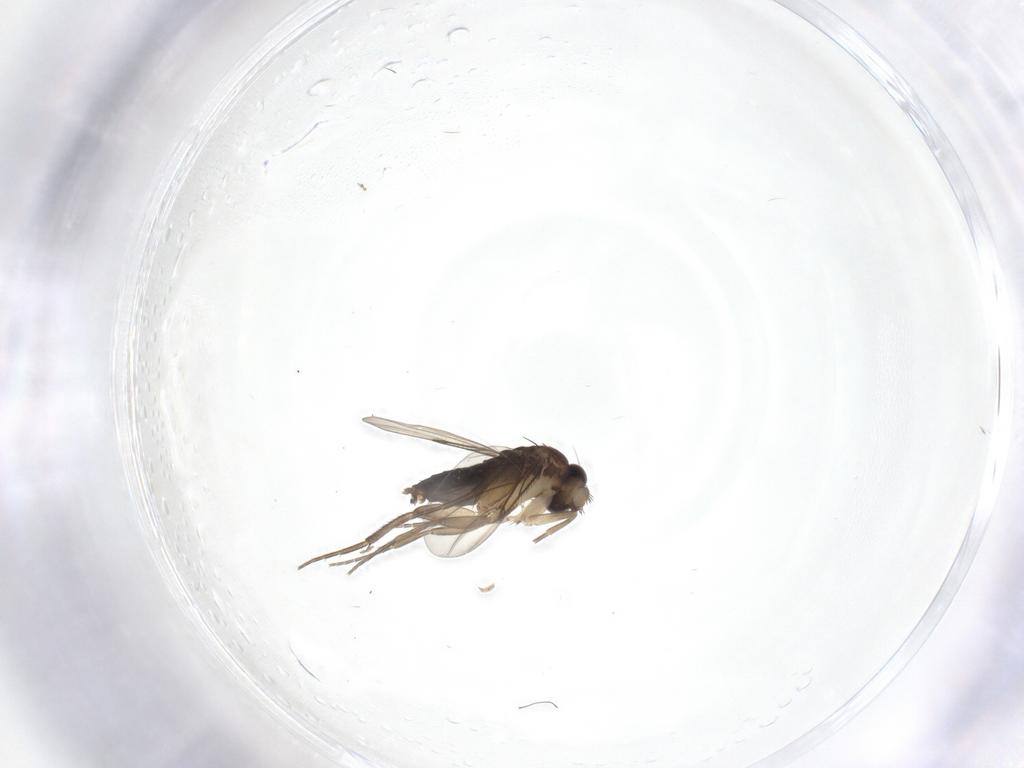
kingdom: Animalia
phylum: Arthropoda
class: Insecta
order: Diptera
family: Chironomidae
